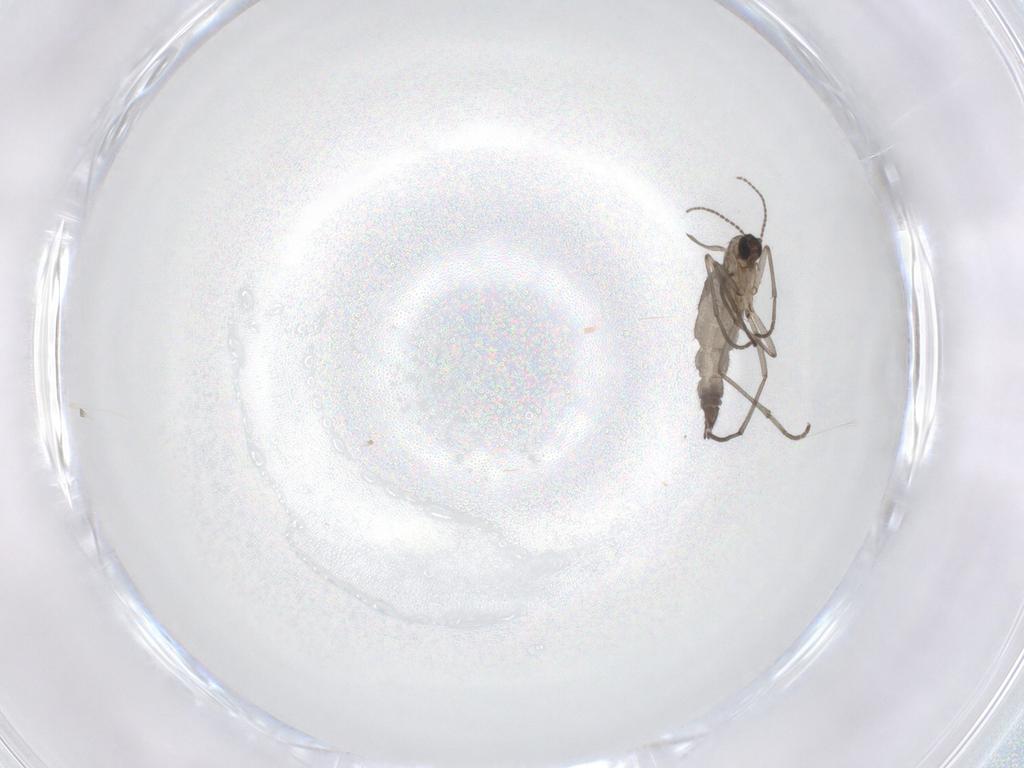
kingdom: Animalia
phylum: Arthropoda
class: Insecta
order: Diptera
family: Sciaridae
